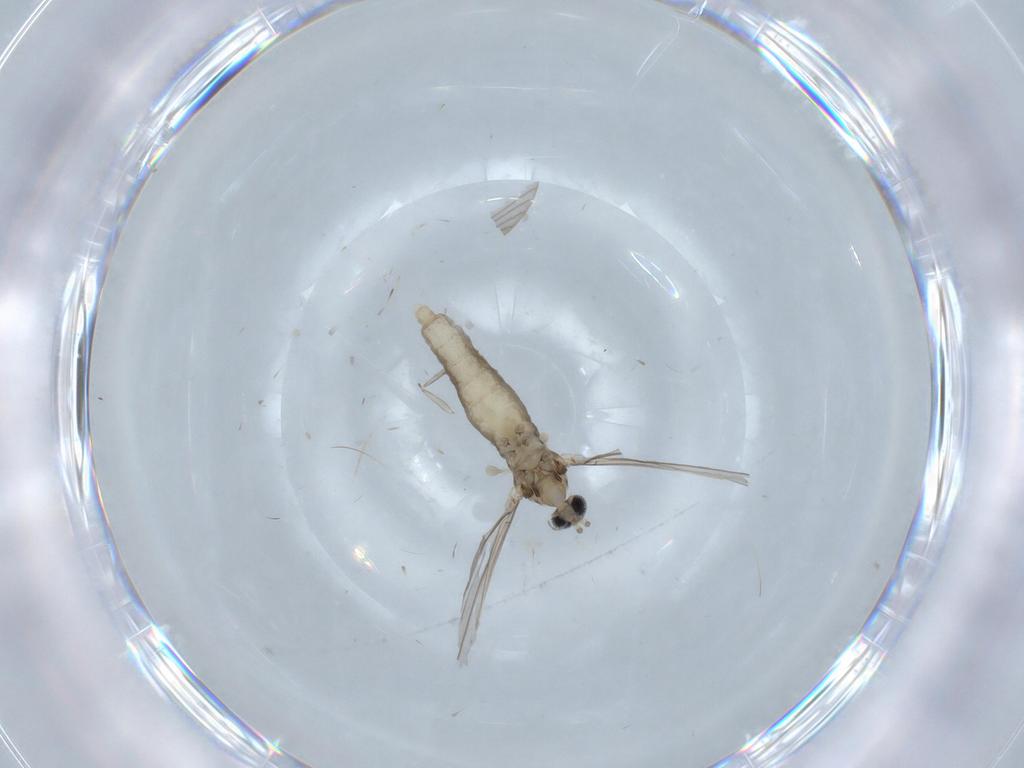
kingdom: Animalia
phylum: Arthropoda
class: Insecta
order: Diptera
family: Cecidomyiidae
